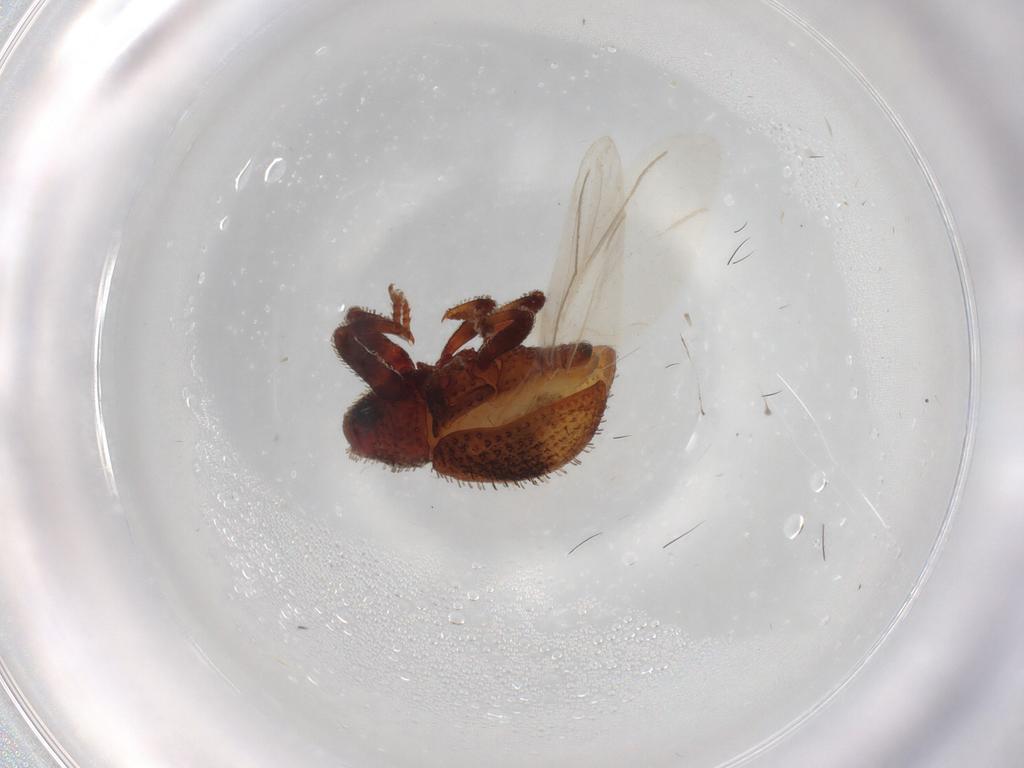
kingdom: Animalia
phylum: Arthropoda
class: Insecta
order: Coleoptera
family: Curculionidae
